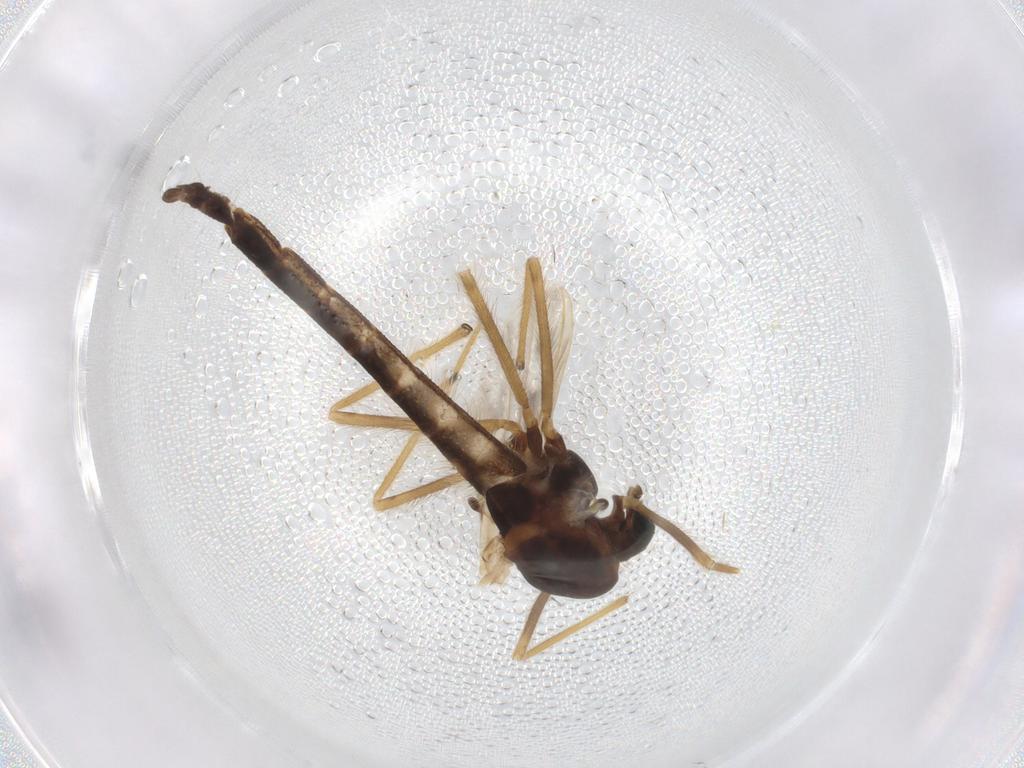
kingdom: Animalia
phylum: Arthropoda
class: Insecta
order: Diptera
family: Chironomidae
